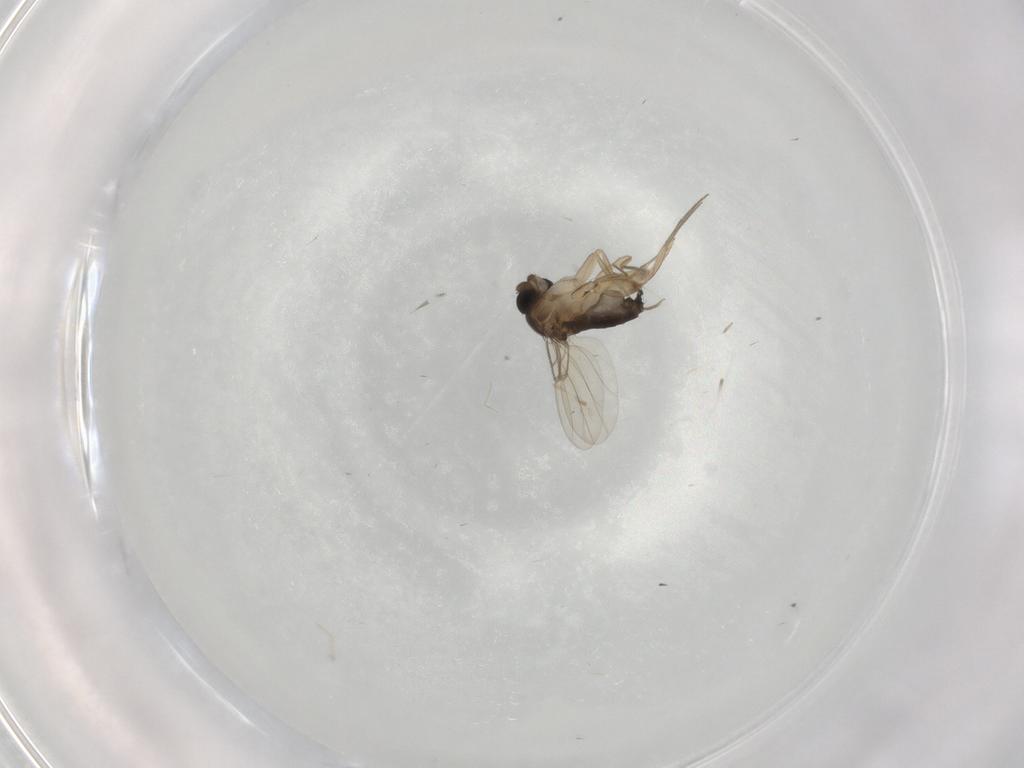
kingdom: Animalia
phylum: Arthropoda
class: Insecta
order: Diptera
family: Phoridae
